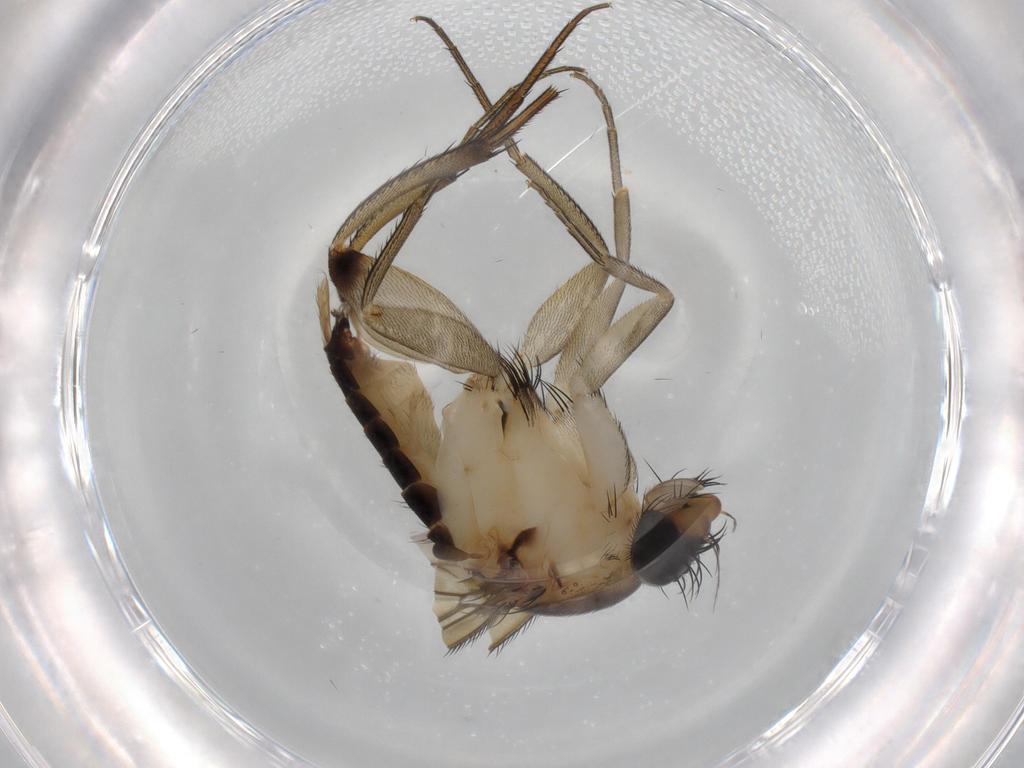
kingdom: Animalia
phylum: Arthropoda
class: Insecta
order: Diptera
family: Phoridae
